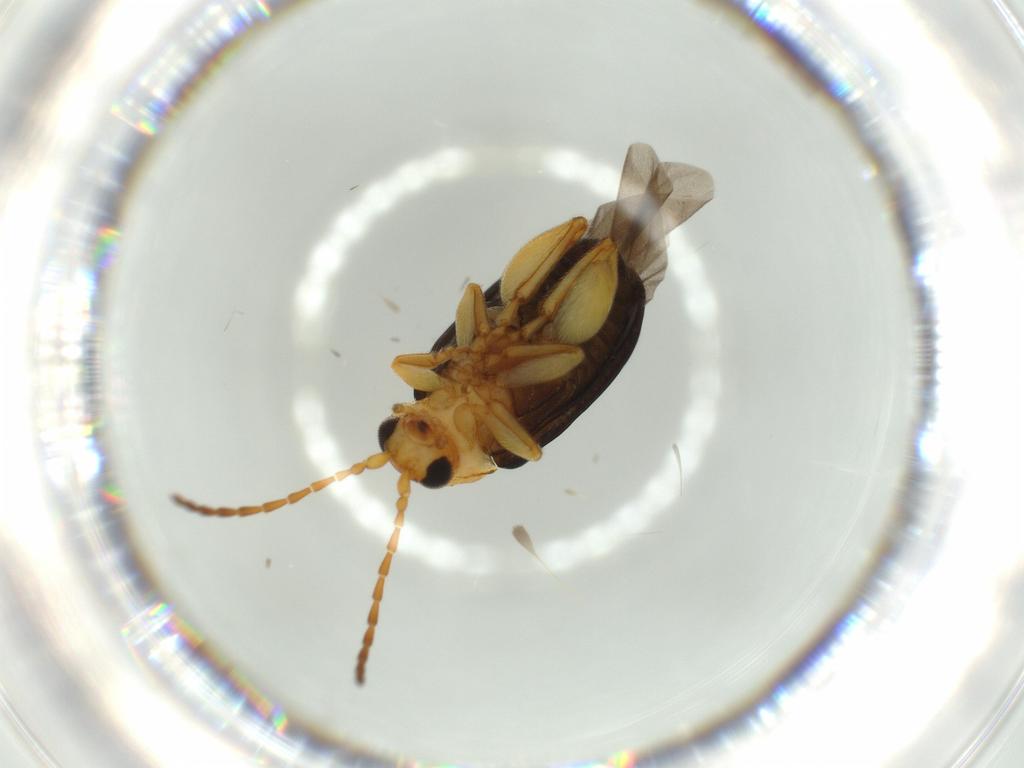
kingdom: Animalia
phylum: Arthropoda
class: Insecta
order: Coleoptera
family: Chrysomelidae
